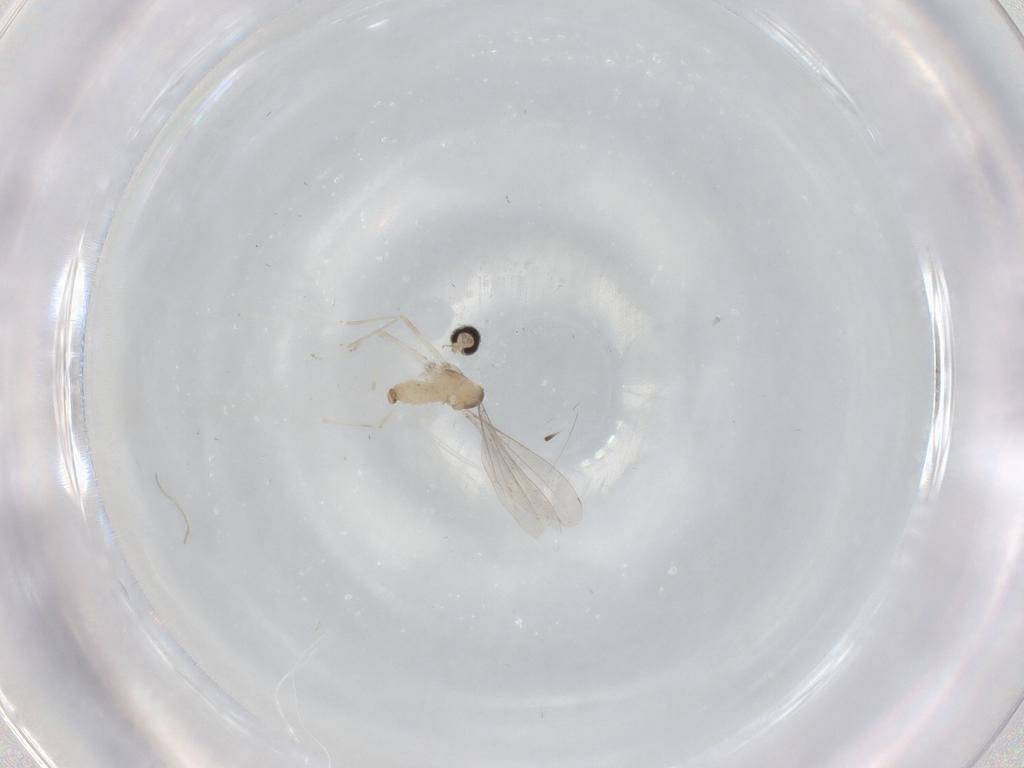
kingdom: Animalia
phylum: Arthropoda
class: Insecta
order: Diptera
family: Cecidomyiidae
